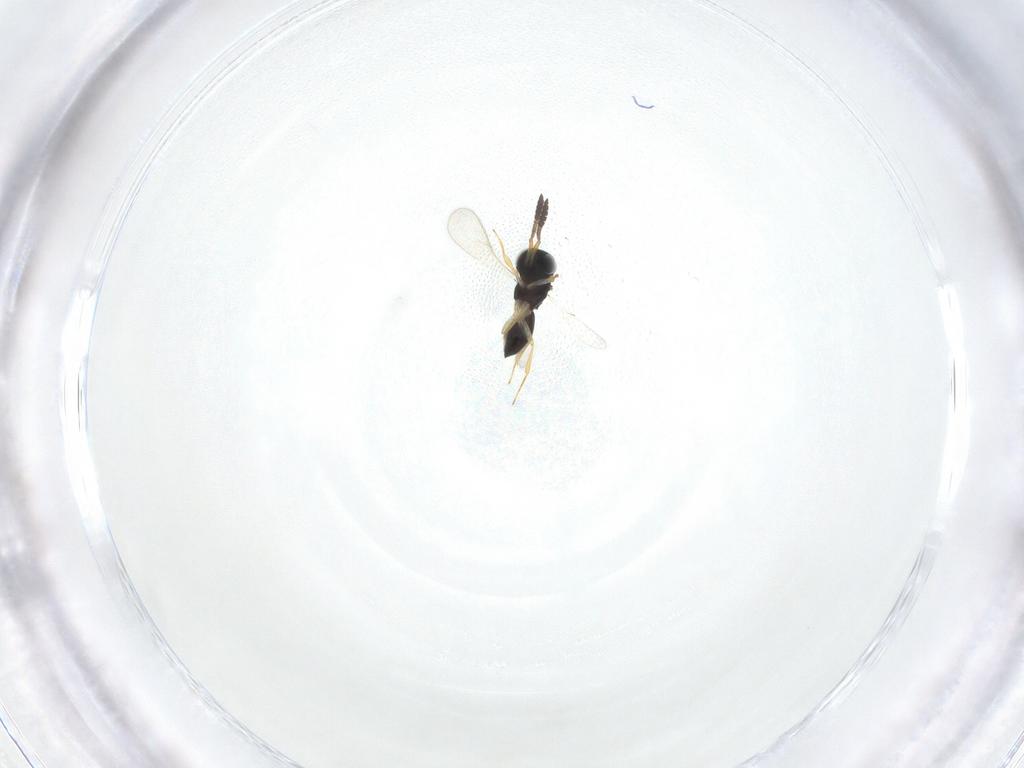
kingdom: Animalia
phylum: Arthropoda
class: Insecta
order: Hymenoptera
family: Scelionidae
